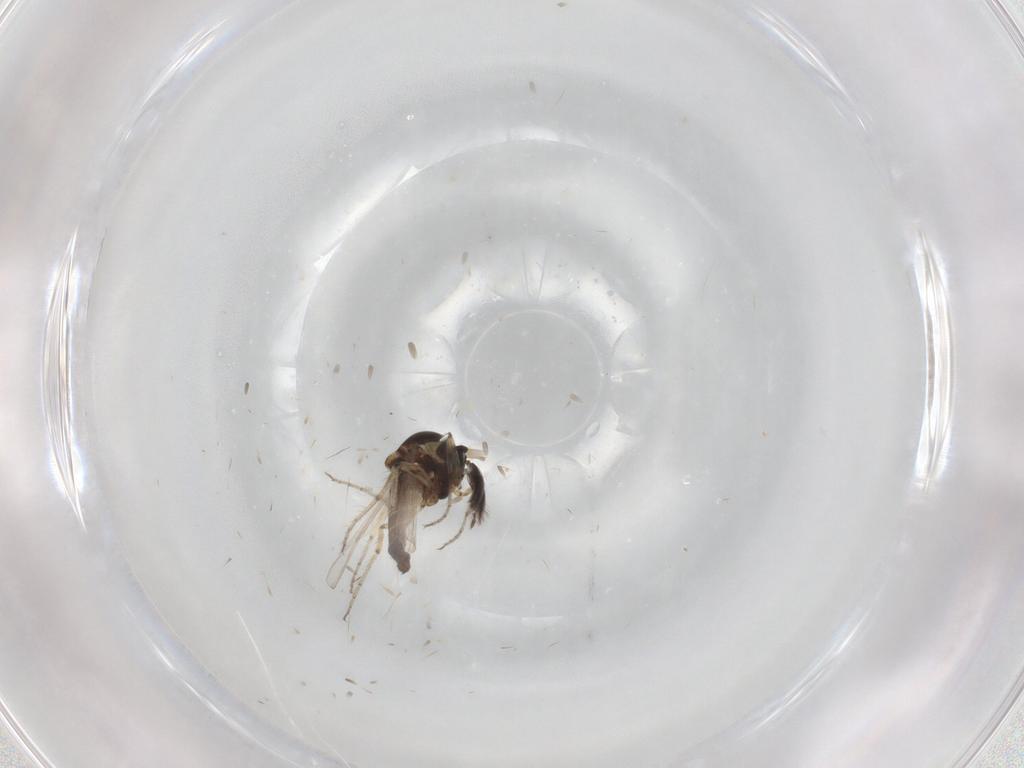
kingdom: Animalia
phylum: Arthropoda
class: Insecta
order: Diptera
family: Ceratopogonidae
